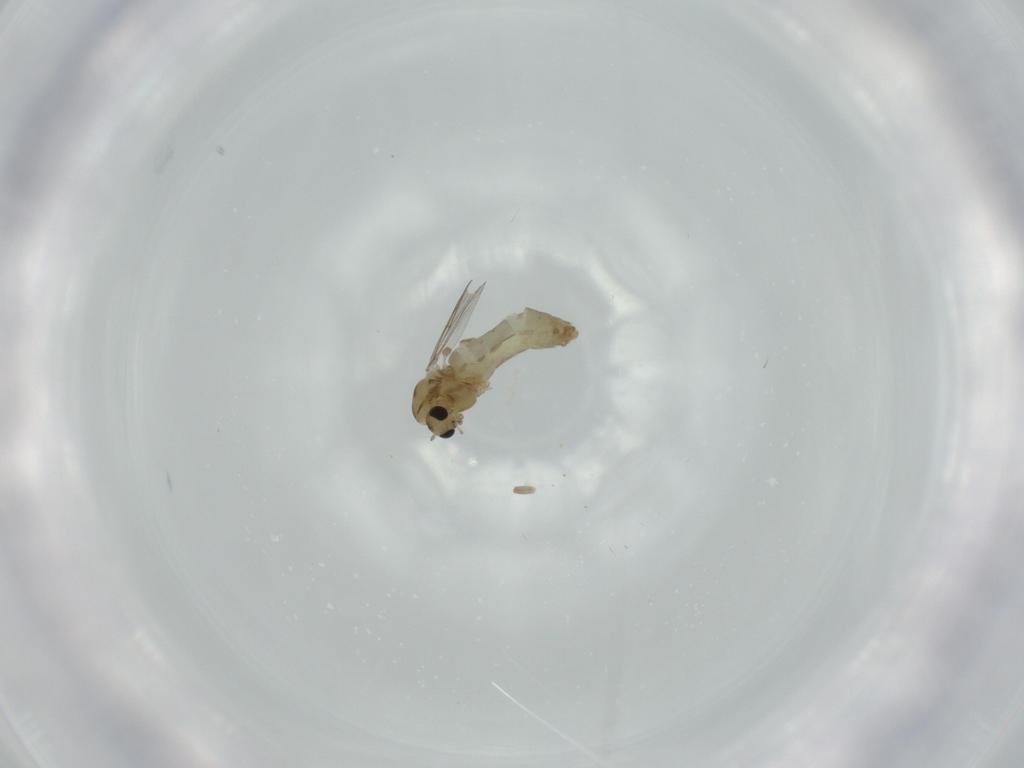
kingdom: Animalia
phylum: Arthropoda
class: Insecta
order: Diptera
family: Chironomidae
